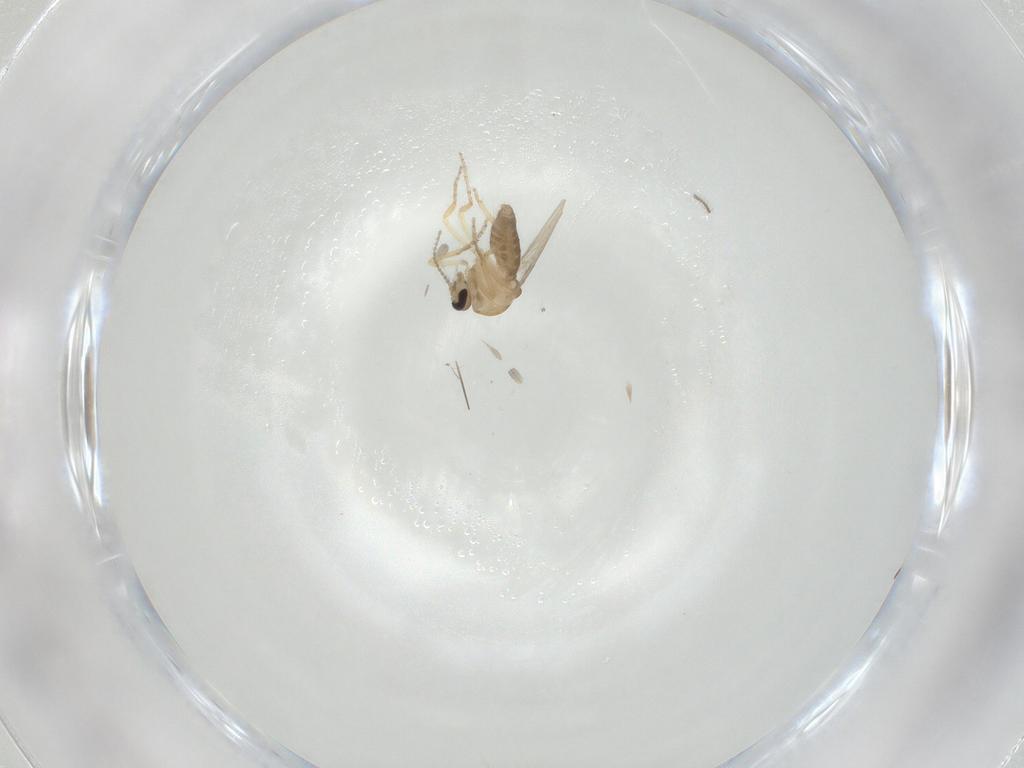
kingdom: Animalia
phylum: Arthropoda
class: Insecta
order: Diptera
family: Ceratopogonidae
